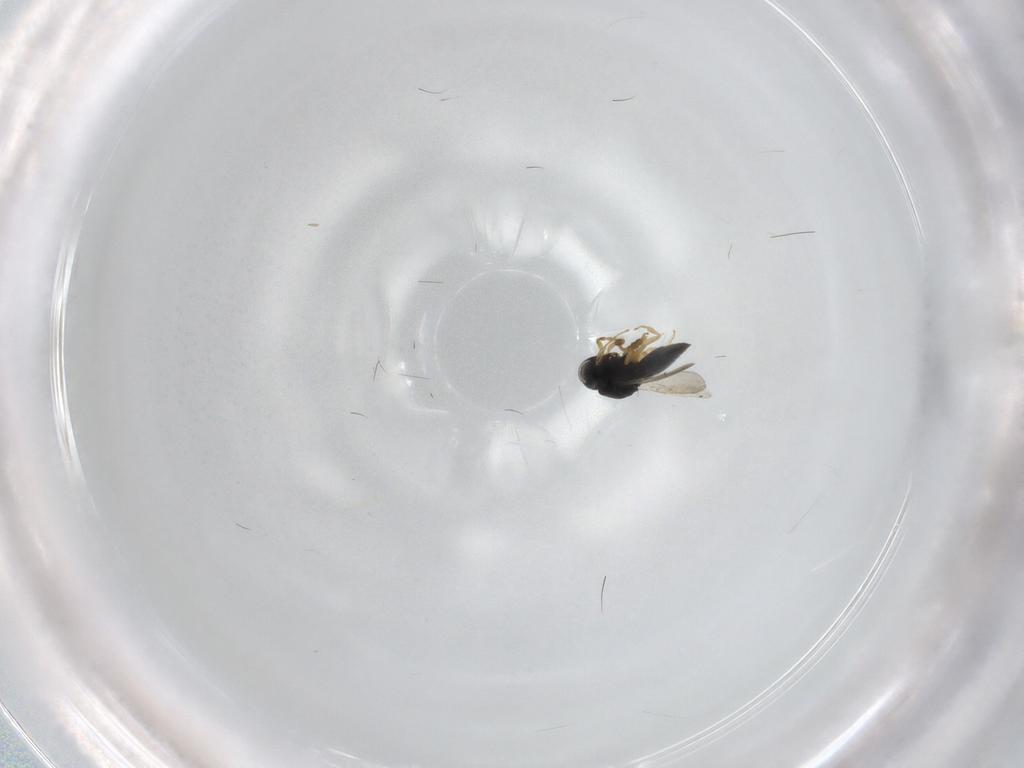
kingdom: Animalia
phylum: Arthropoda
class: Insecta
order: Hymenoptera
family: Scelionidae
